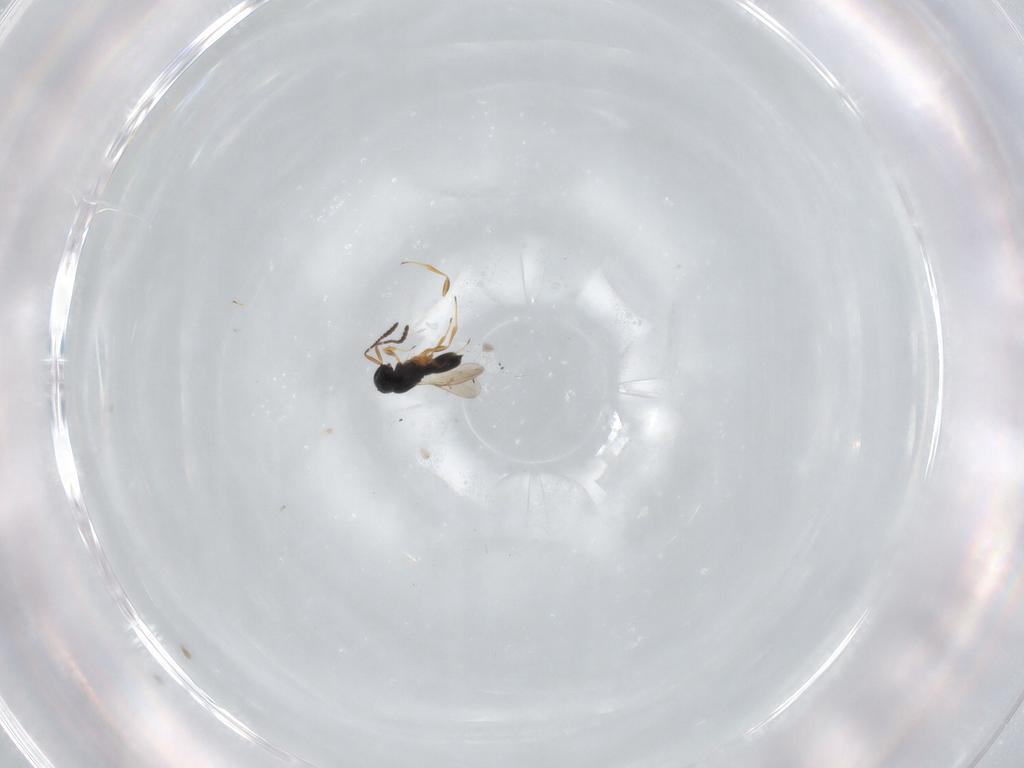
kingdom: Animalia
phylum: Arthropoda
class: Insecta
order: Hymenoptera
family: Scelionidae
